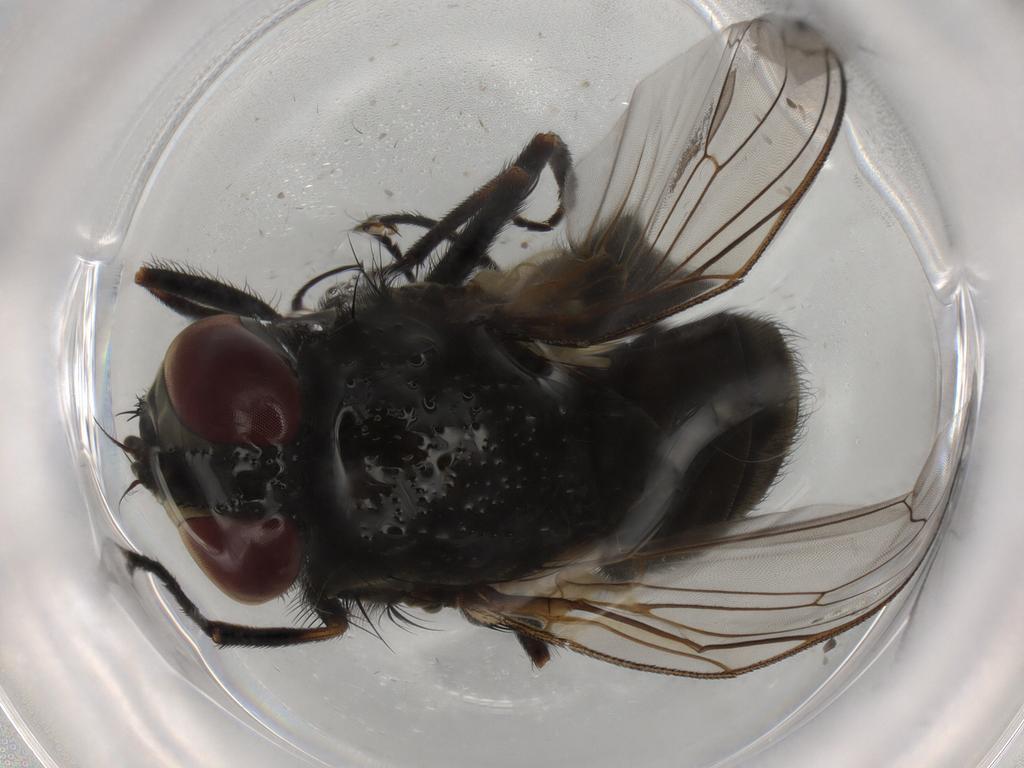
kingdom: Animalia
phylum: Arthropoda
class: Insecta
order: Diptera
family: Muscidae
